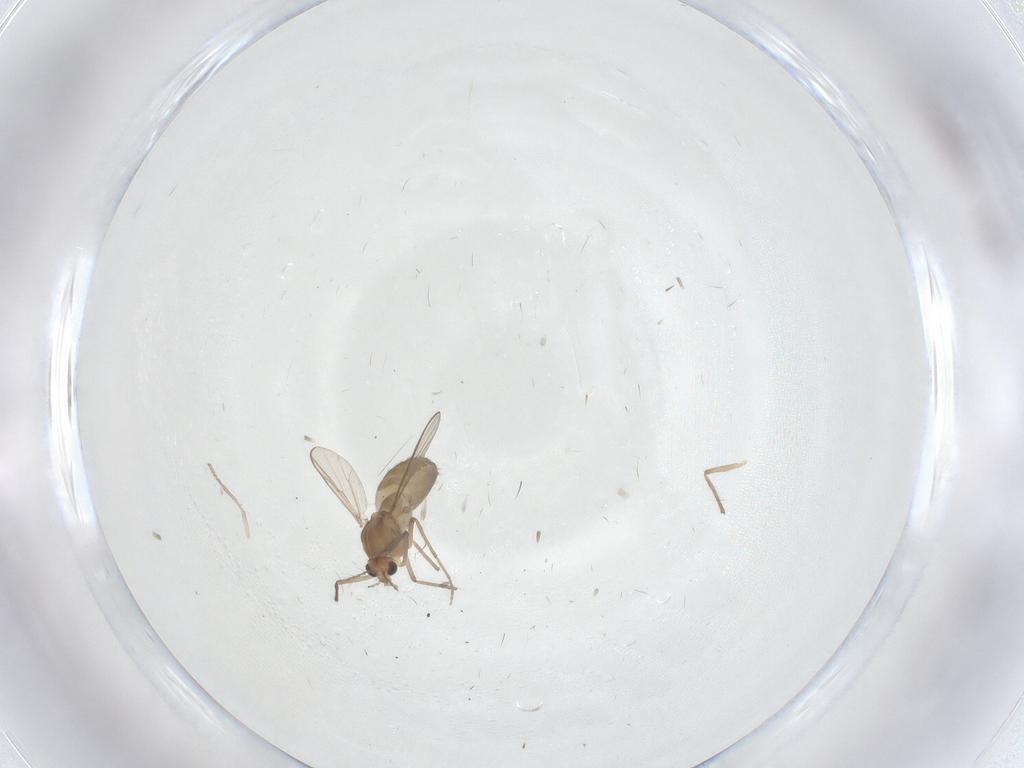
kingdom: Animalia
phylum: Arthropoda
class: Insecta
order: Diptera
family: Chironomidae
